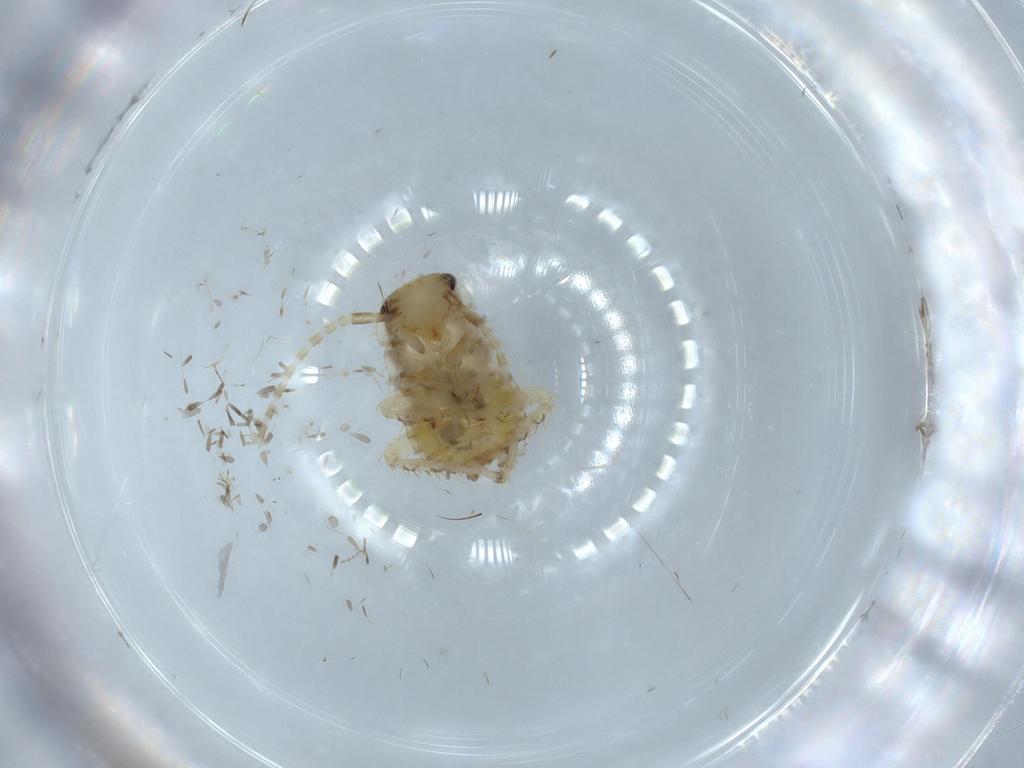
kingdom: Animalia
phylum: Arthropoda
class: Insecta
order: Blattodea
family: Ectobiidae
